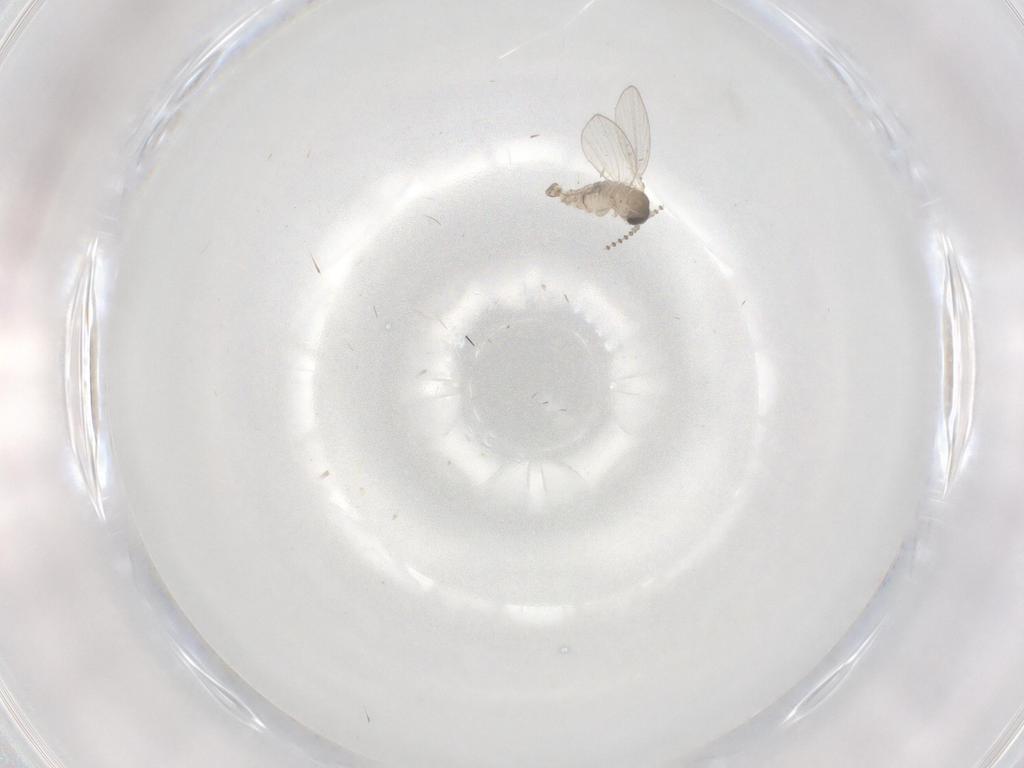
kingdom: Animalia
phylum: Arthropoda
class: Insecta
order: Diptera
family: Psychodidae
